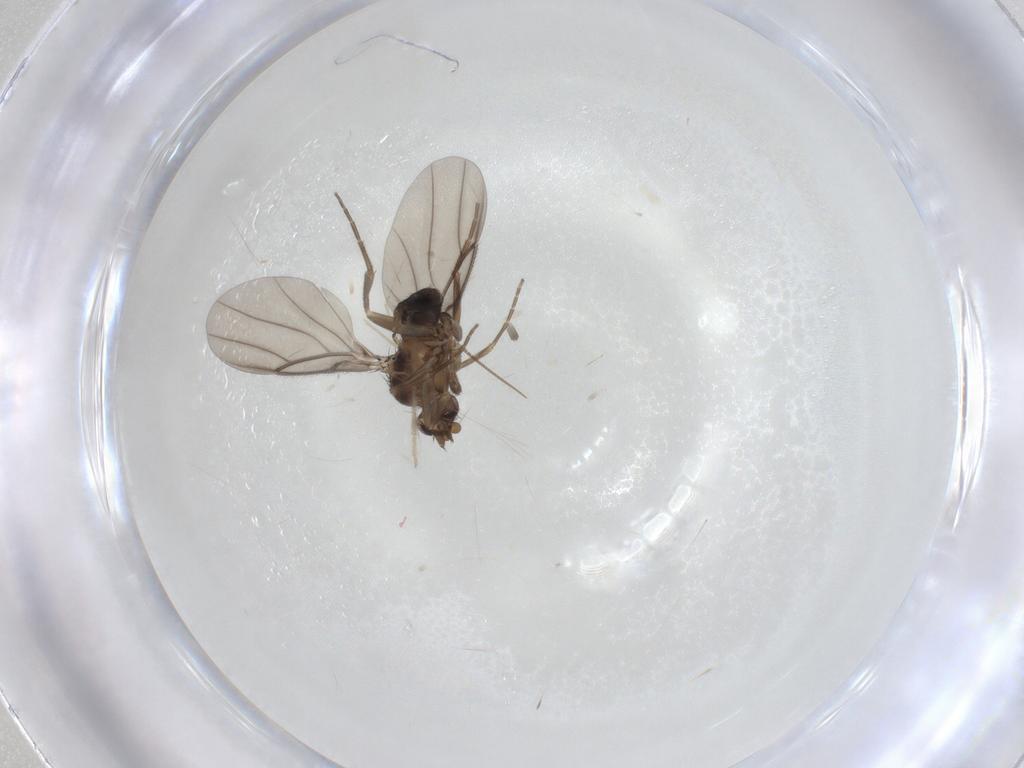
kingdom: Animalia
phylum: Arthropoda
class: Insecta
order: Diptera
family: Phoridae
